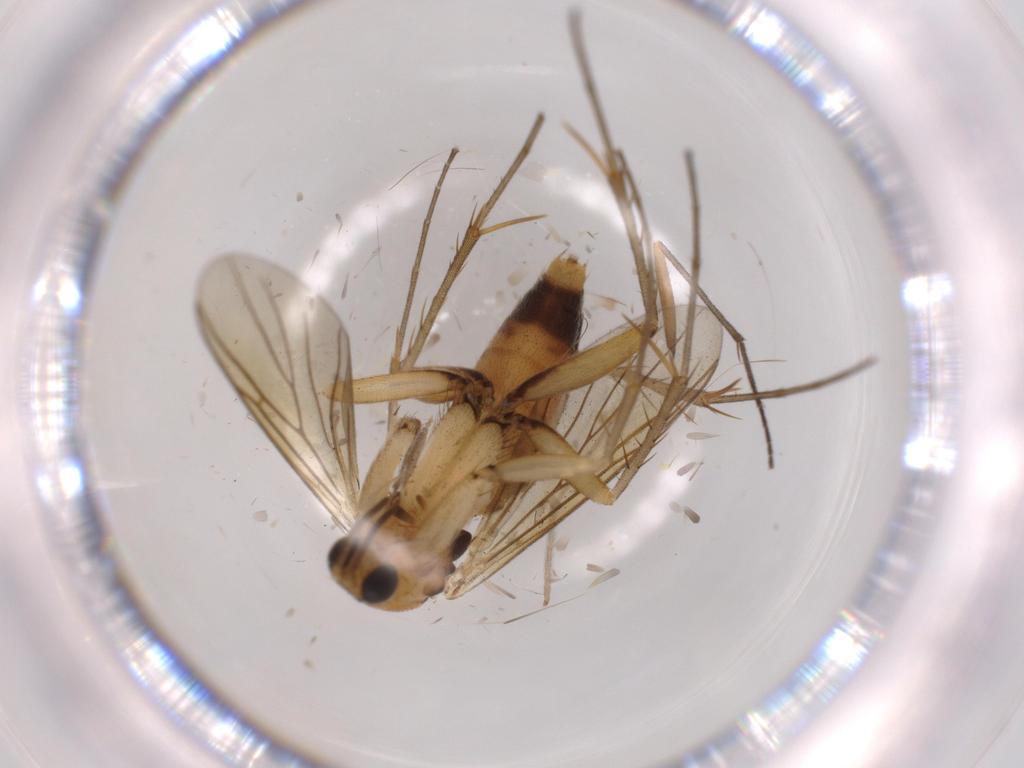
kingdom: Animalia
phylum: Arthropoda
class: Insecta
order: Diptera
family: Mycetophilidae
